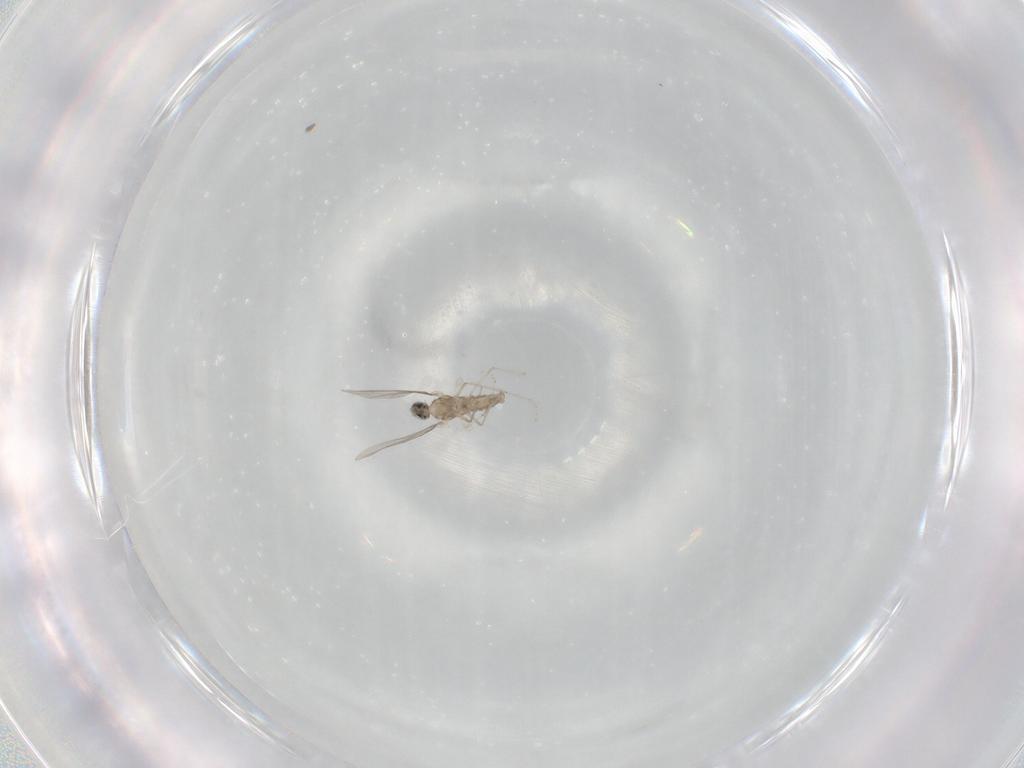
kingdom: Animalia
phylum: Arthropoda
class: Insecta
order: Diptera
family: Cecidomyiidae
